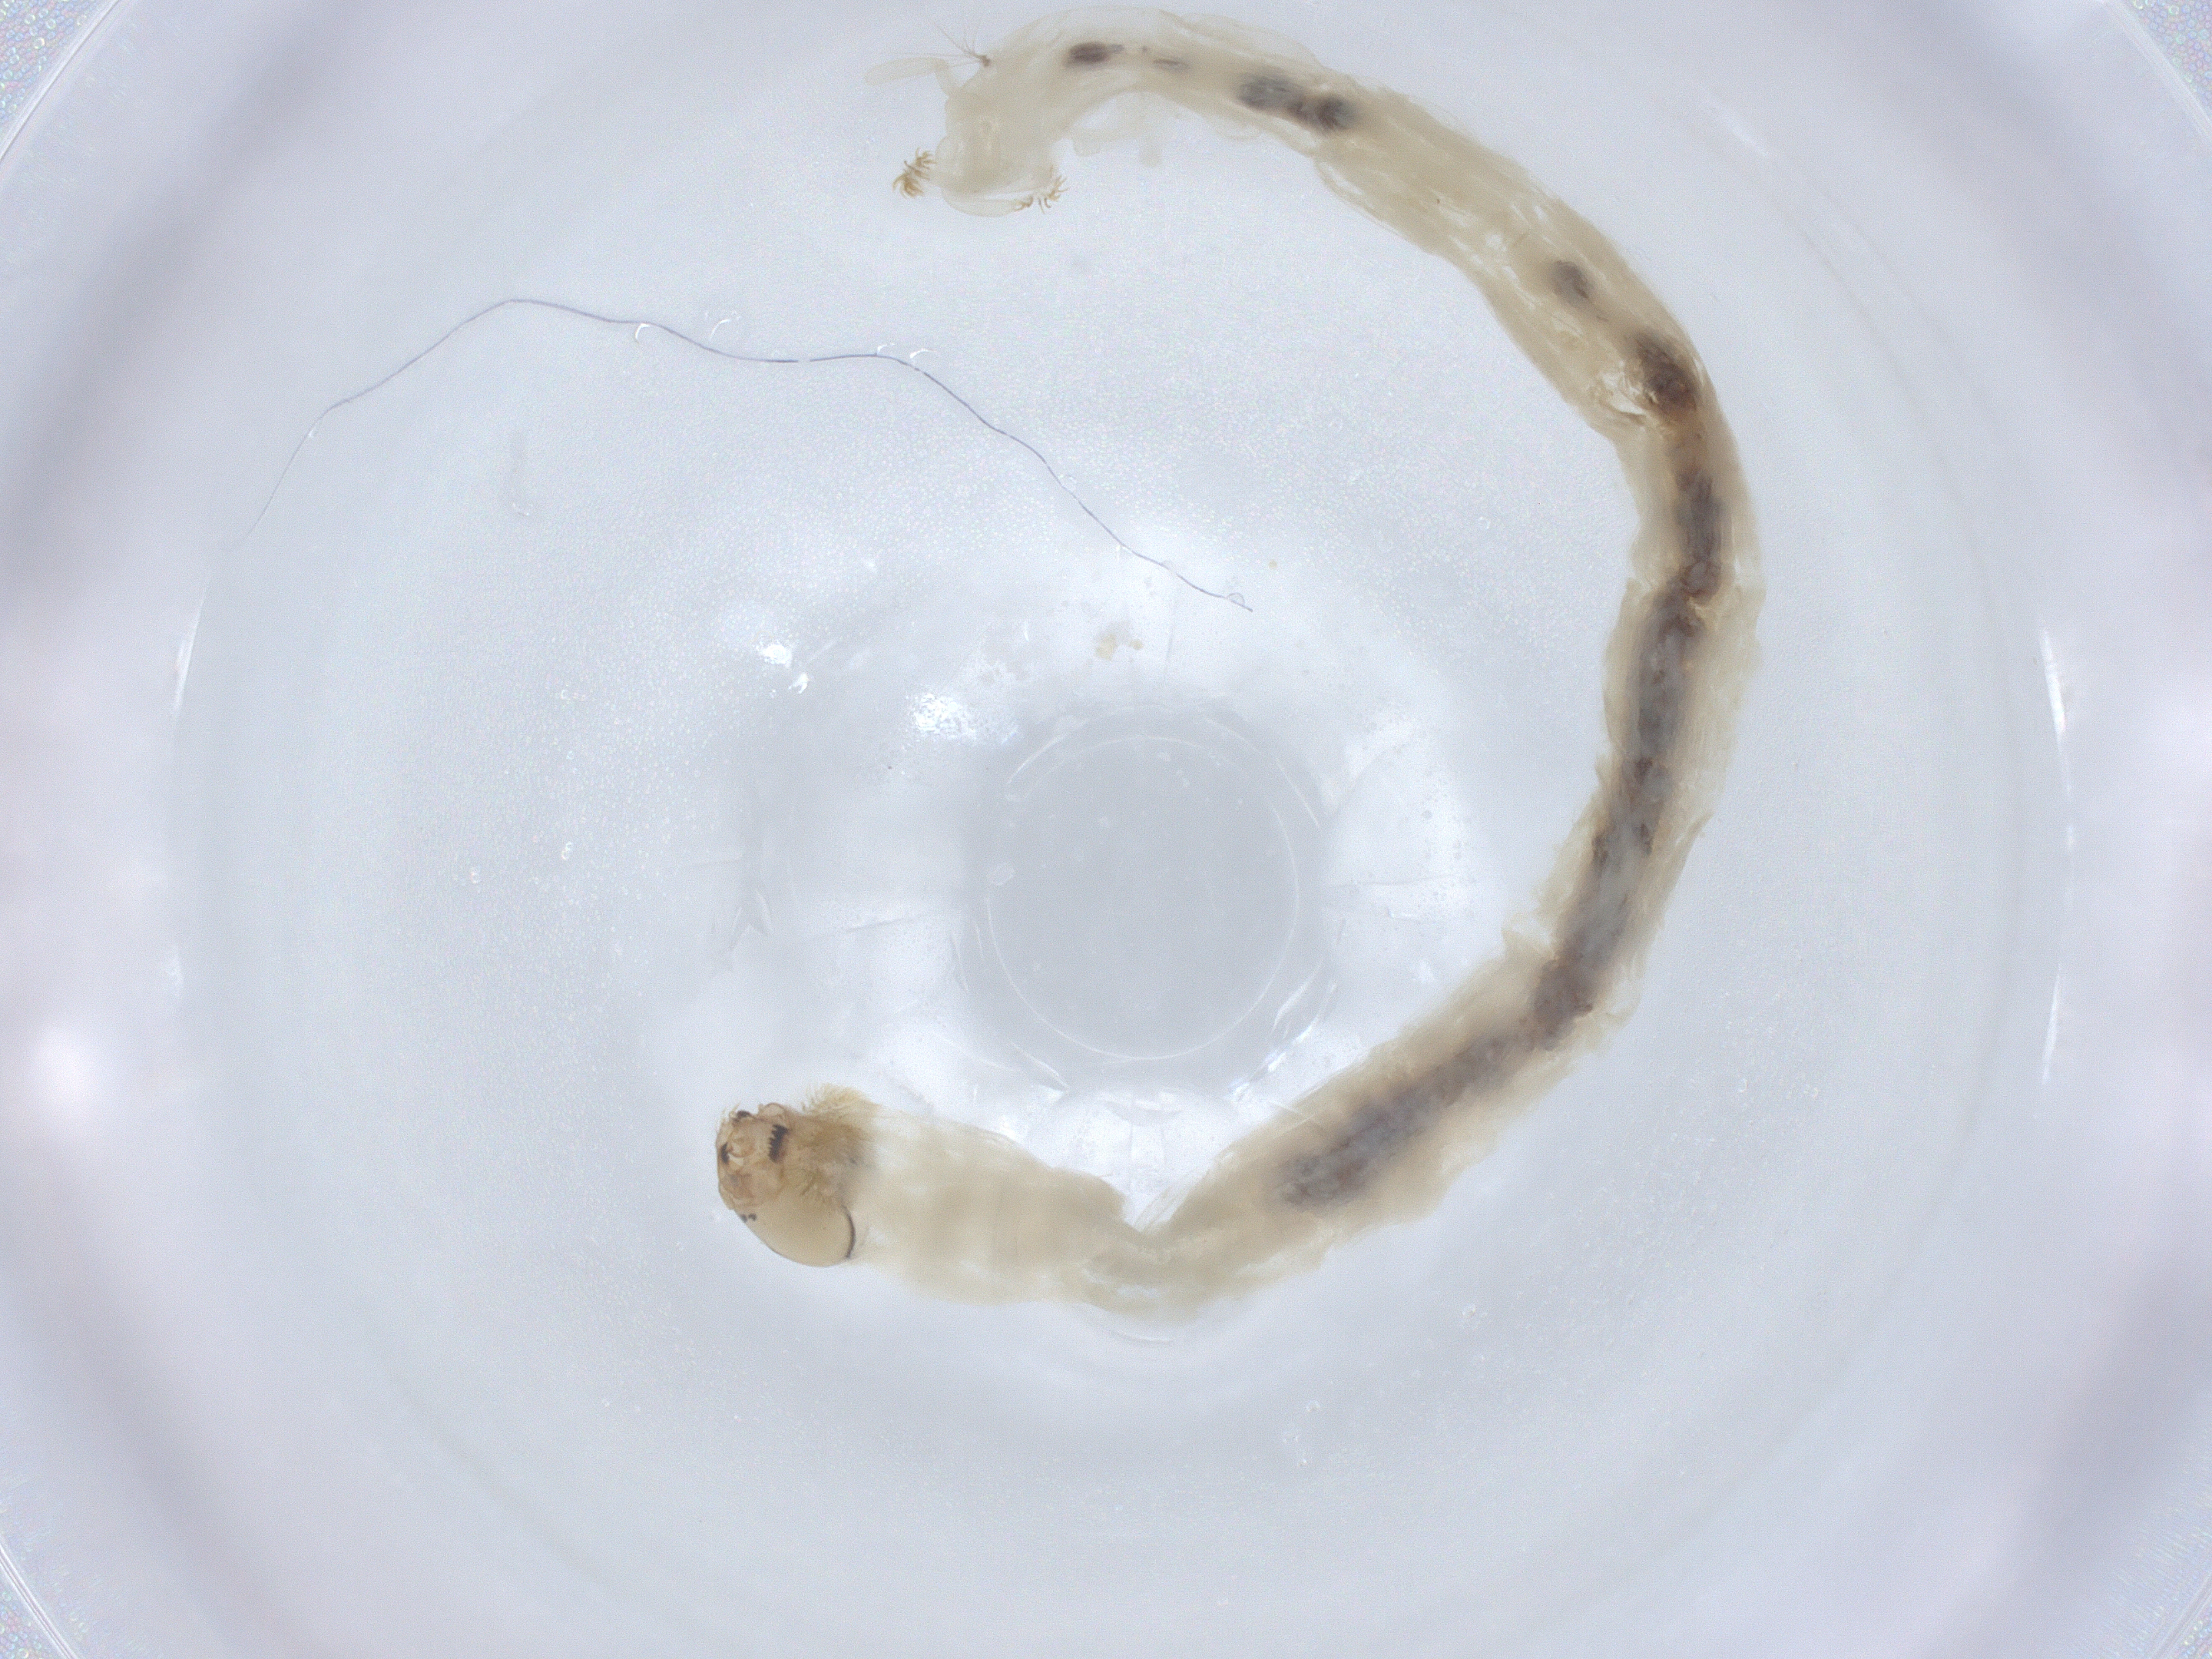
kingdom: Animalia
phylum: Arthropoda
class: Insecta
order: Diptera
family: Chironomidae
